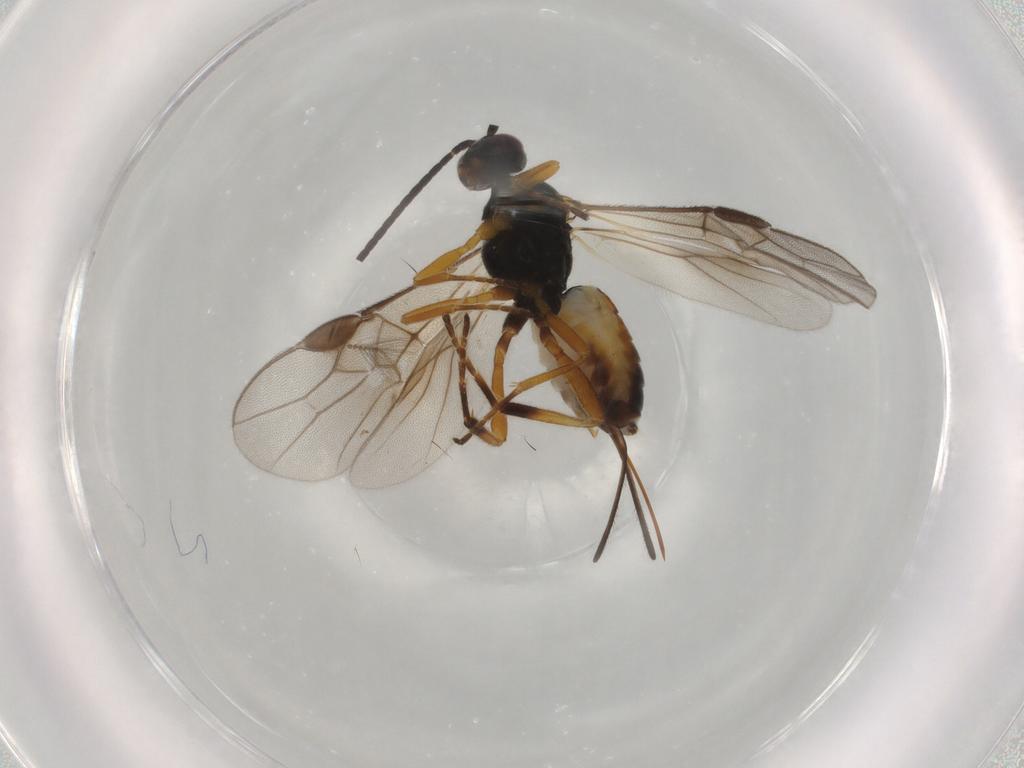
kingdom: Animalia
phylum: Arthropoda
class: Insecta
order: Hymenoptera
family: Braconidae
